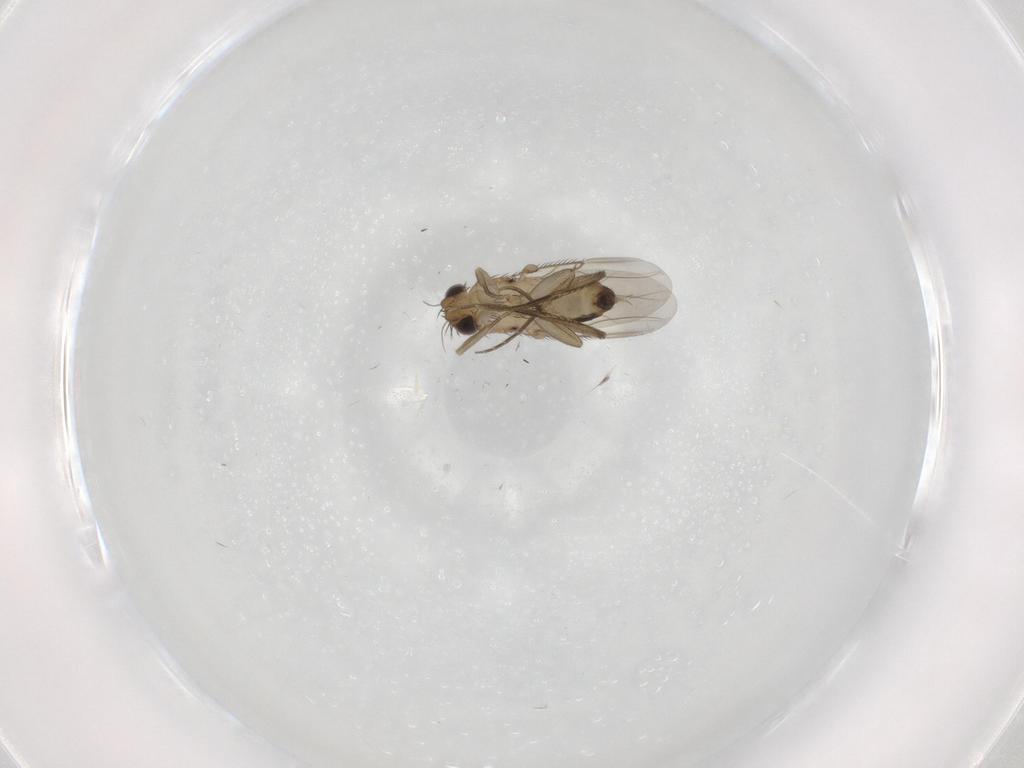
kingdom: Animalia
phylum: Arthropoda
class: Insecta
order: Diptera
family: Phoridae
